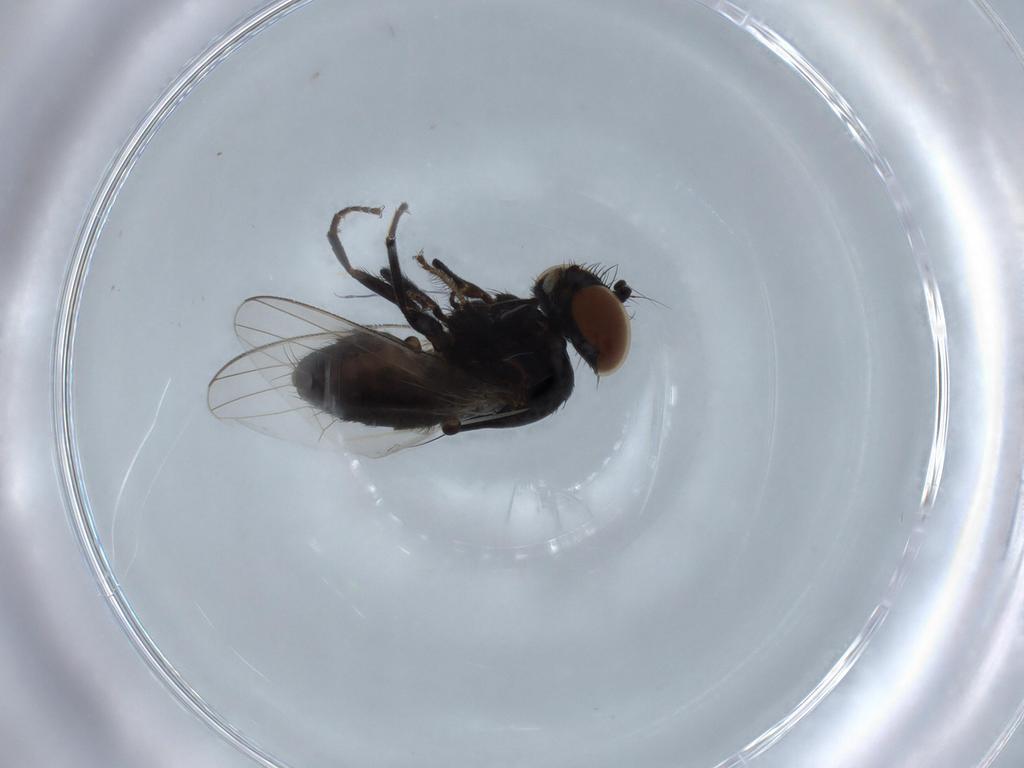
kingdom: Animalia
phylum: Arthropoda
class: Insecta
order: Diptera
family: Milichiidae
